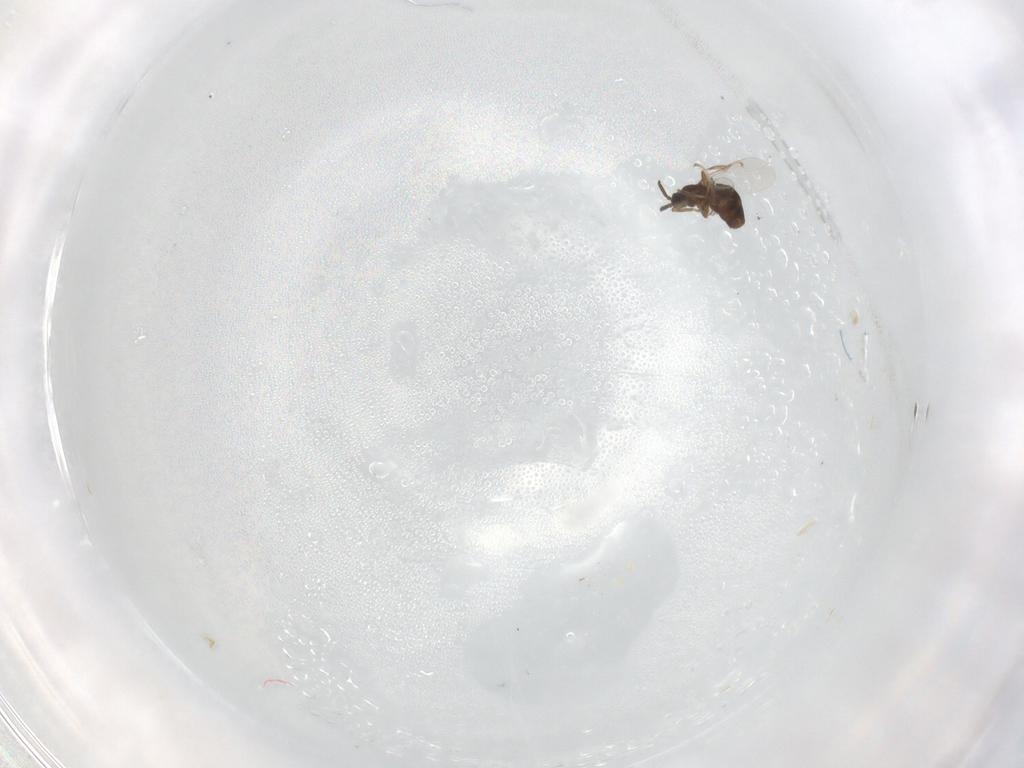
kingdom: Animalia
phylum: Arthropoda
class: Insecta
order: Diptera
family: Scatopsidae
